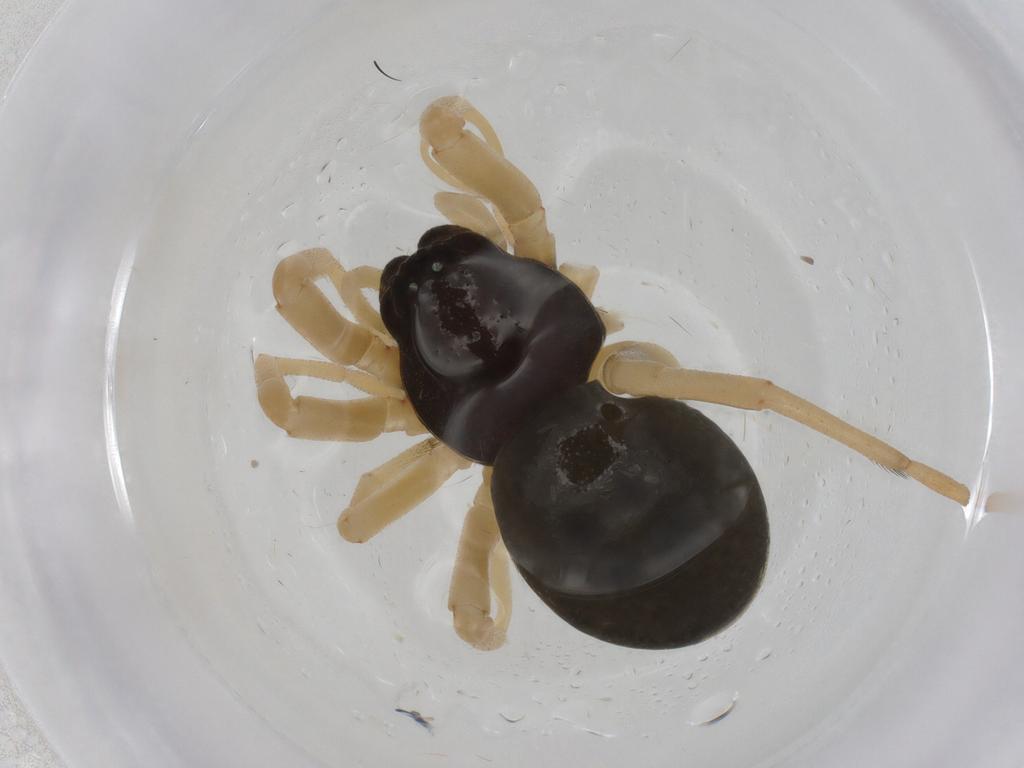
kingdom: Animalia
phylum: Arthropoda
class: Arachnida
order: Araneae
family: Trachelidae
